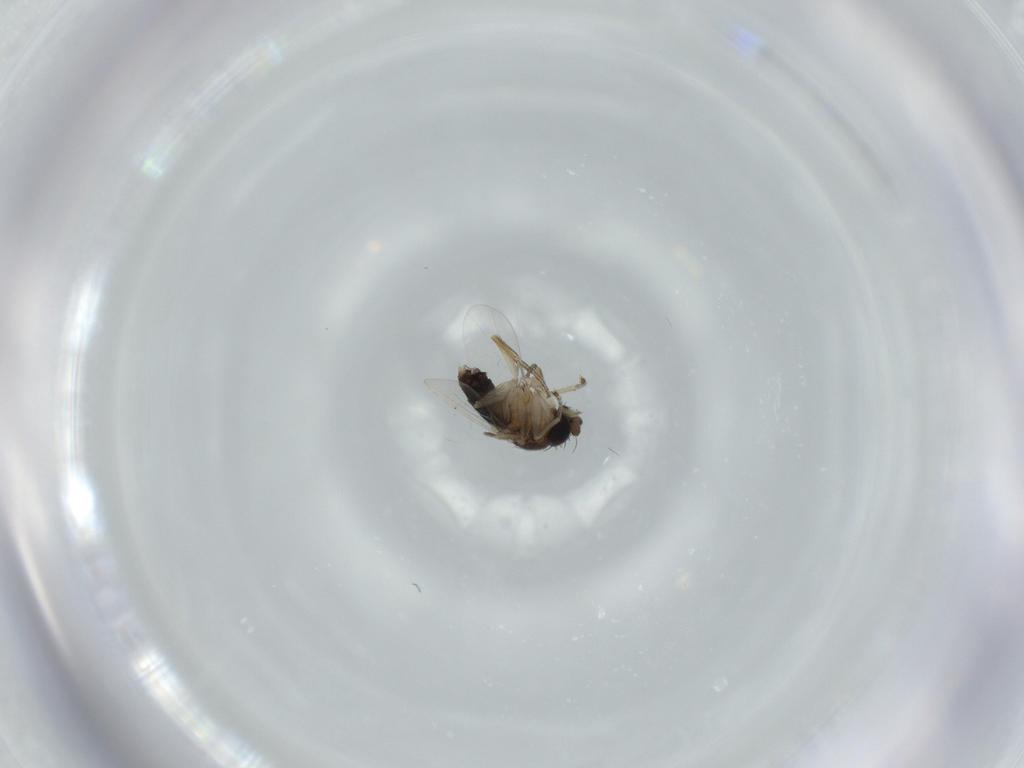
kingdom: Animalia
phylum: Arthropoda
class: Insecta
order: Diptera
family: Phoridae
